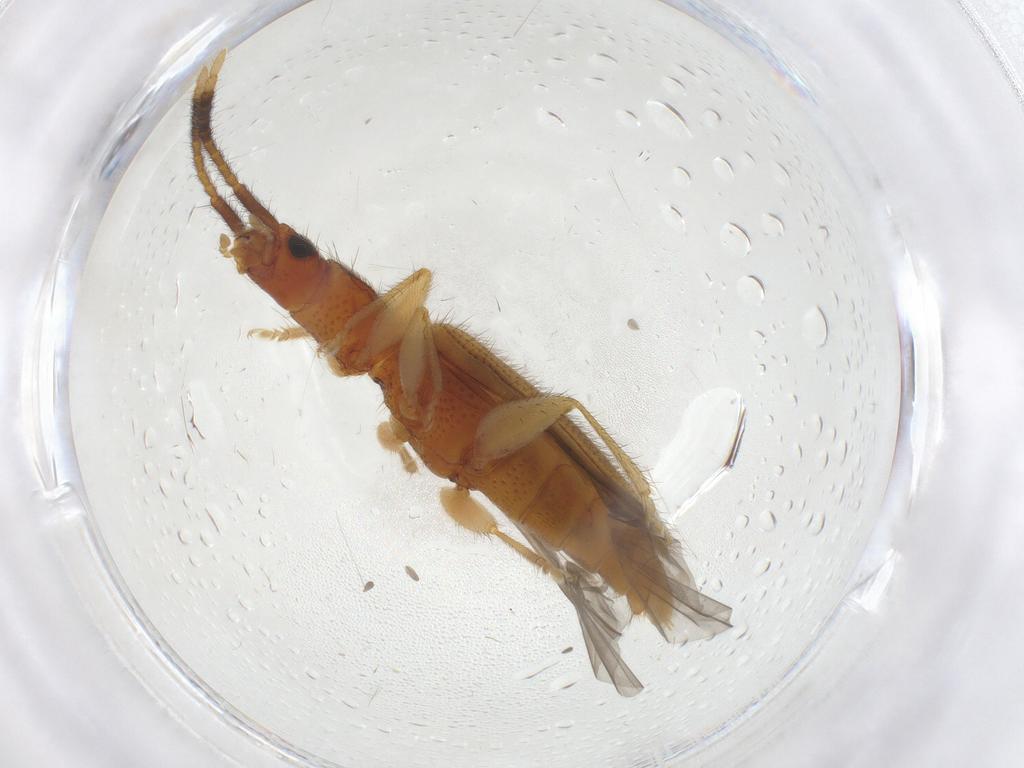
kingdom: Animalia
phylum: Arthropoda
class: Insecta
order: Coleoptera
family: Silvanidae
